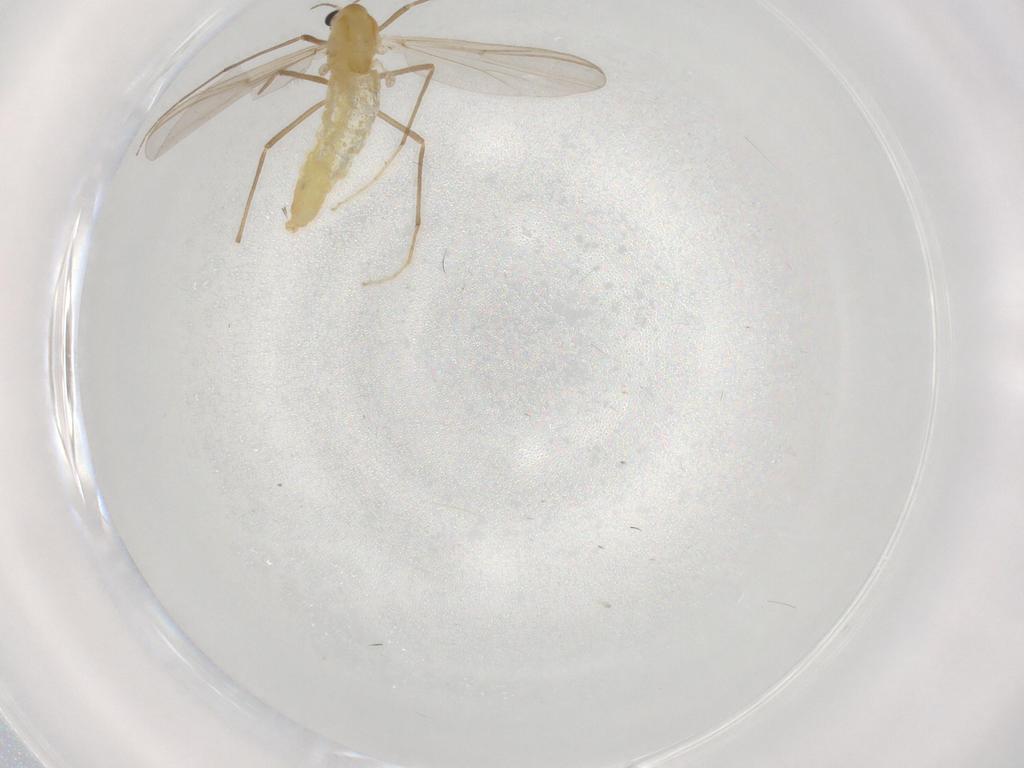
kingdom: Animalia
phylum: Arthropoda
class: Insecta
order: Diptera
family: Chironomidae
